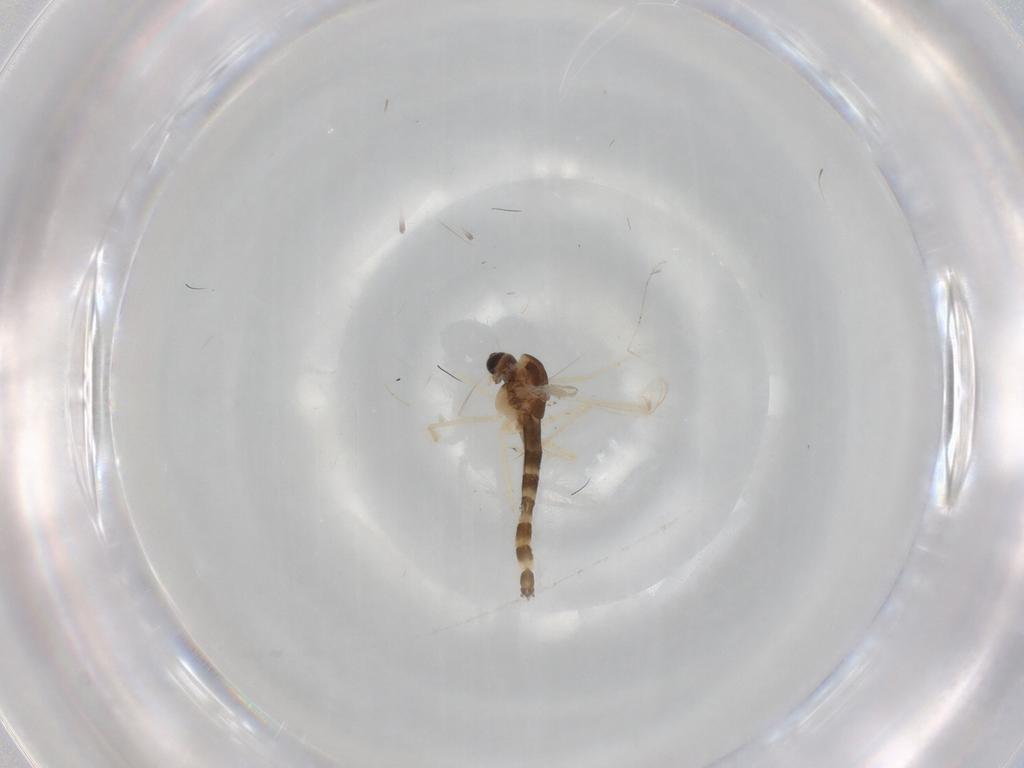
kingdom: Animalia
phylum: Arthropoda
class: Insecta
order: Diptera
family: Chironomidae
